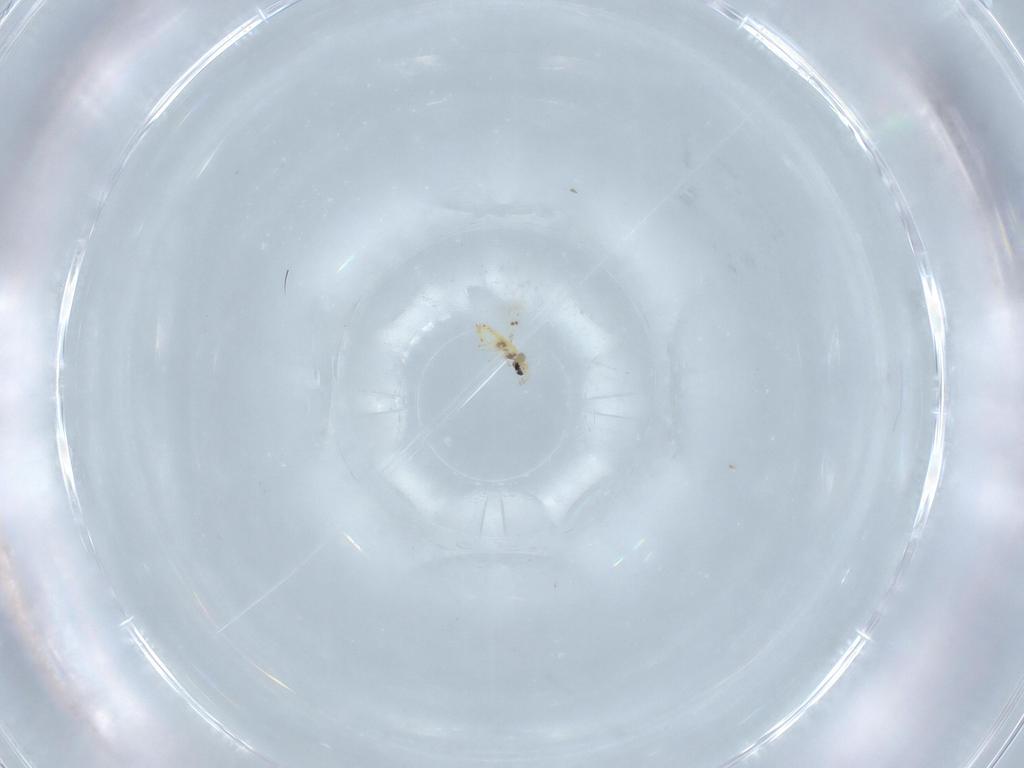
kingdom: Animalia
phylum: Arthropoda
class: Insecta
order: Hymenoptera
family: Trichogrammatidae
